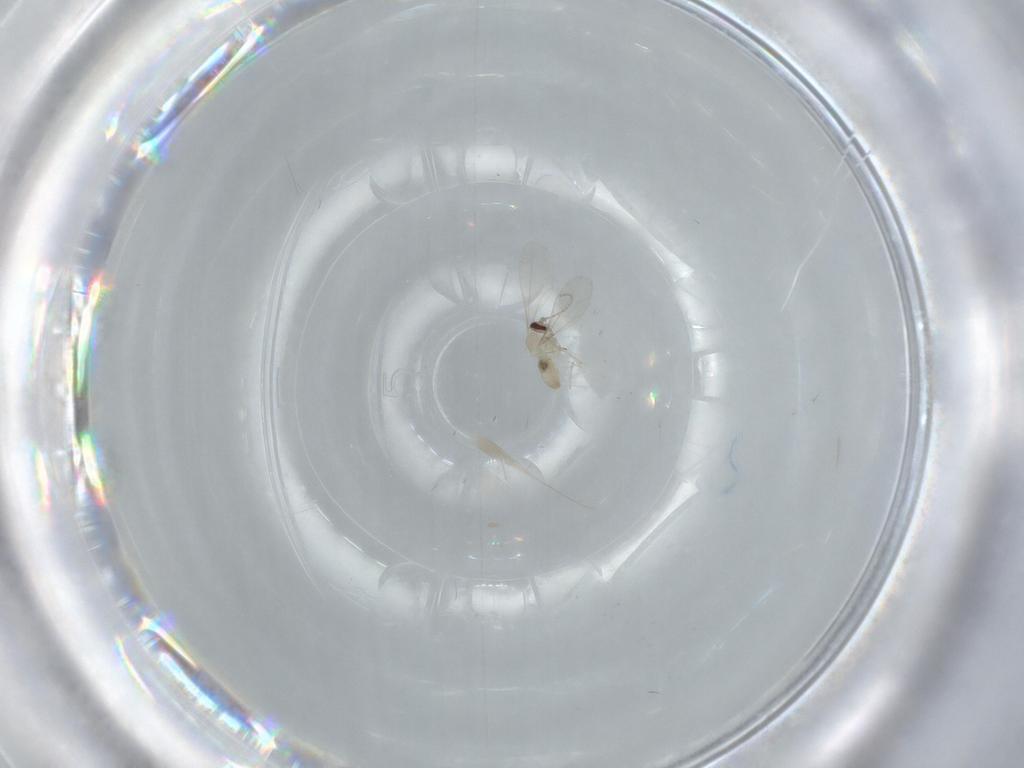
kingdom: Animalia
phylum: Arthropoda
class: Insecta
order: Diptera
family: Cecidomyiidae
